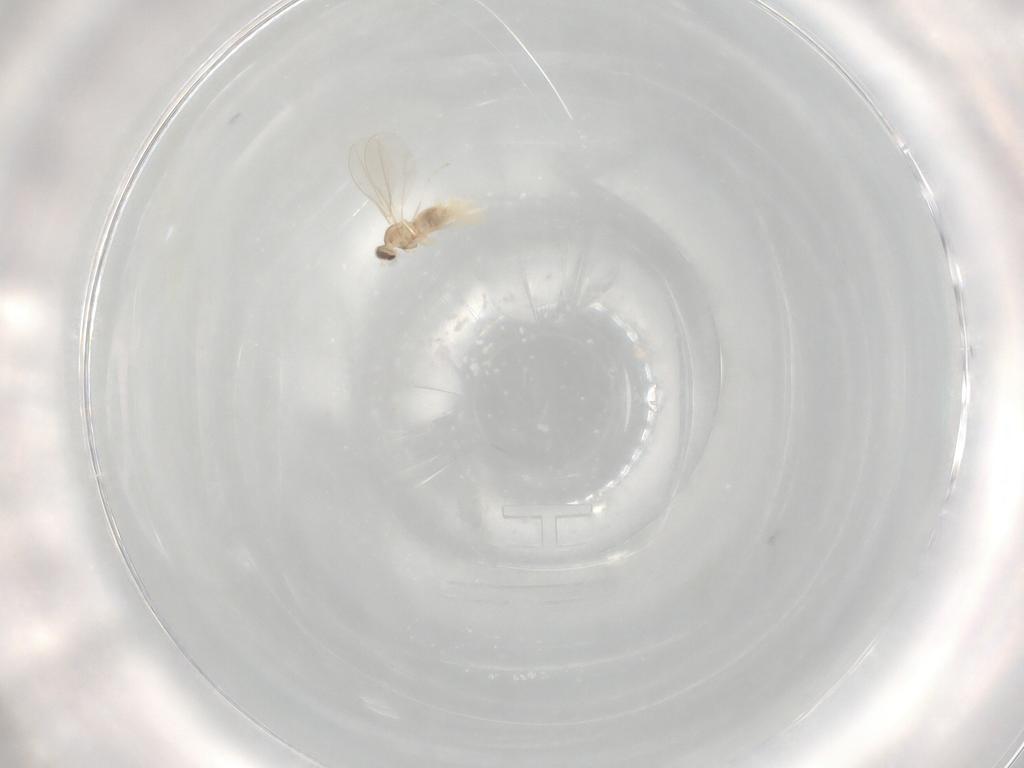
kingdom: Animalia
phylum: Arthropoda
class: Insecta
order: Diptera
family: Cecidomyiidae
